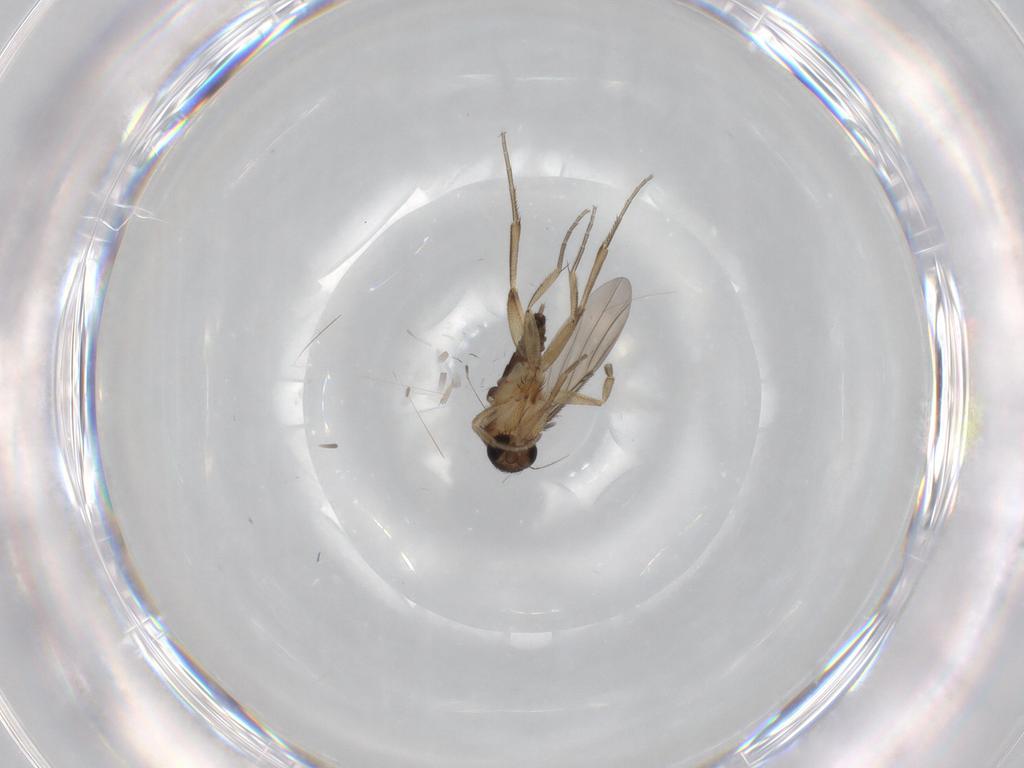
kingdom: Animalia
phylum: Arthropoda
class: Insecta
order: Diptera
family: Phoridae
